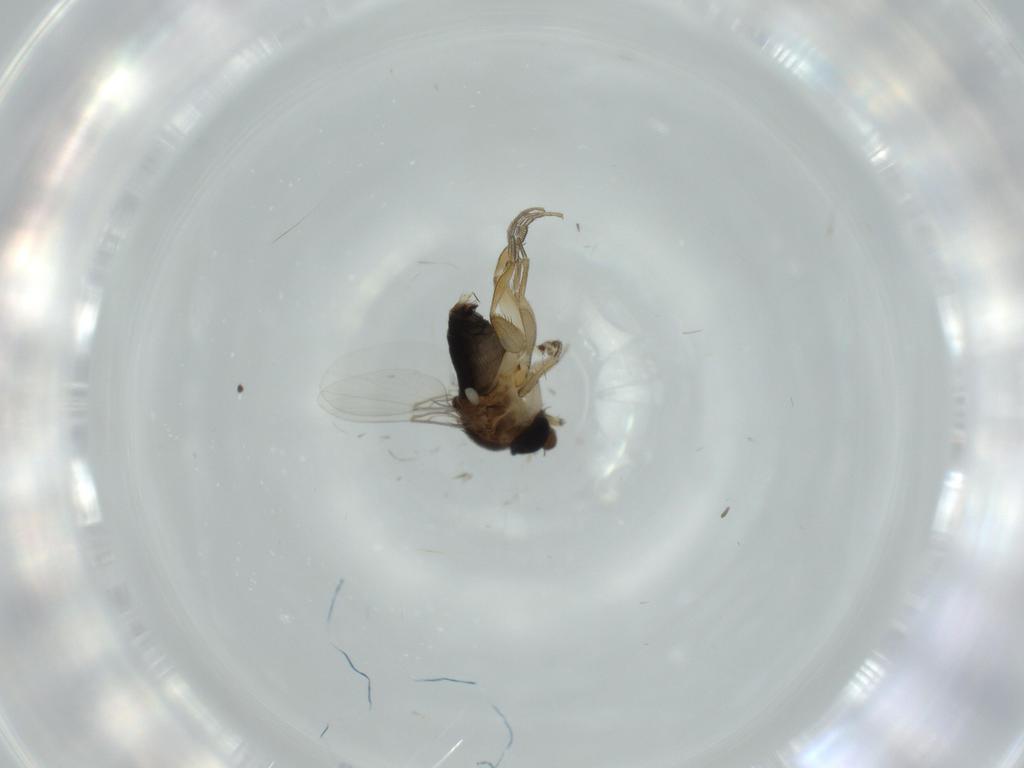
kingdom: Animalia
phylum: Arthropoda
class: Insecta
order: Diptera
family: Phoridae
